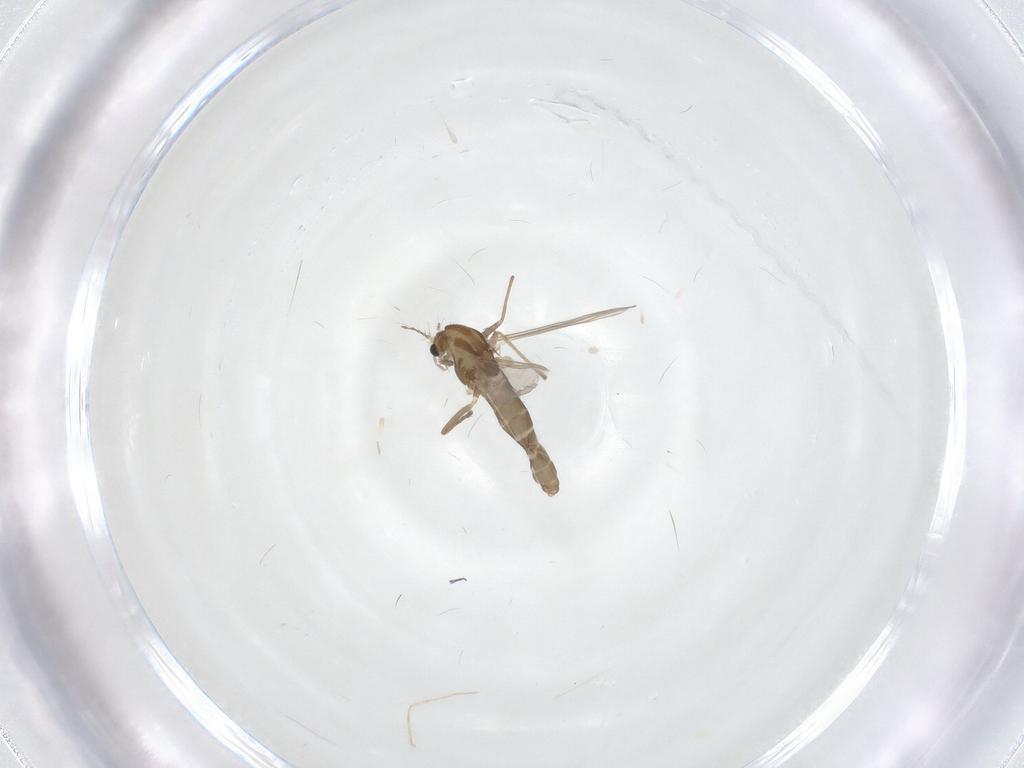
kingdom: Animalia
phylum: Arthropoda
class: Insecta
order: Diptera
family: Chironomidae
